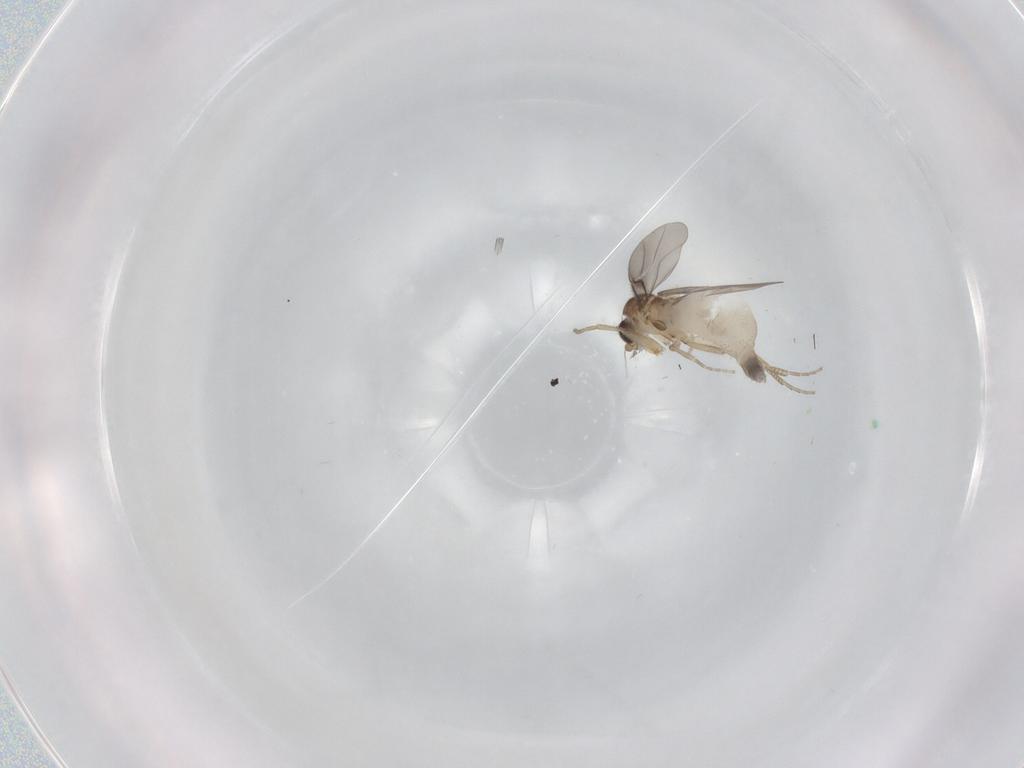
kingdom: Animalia
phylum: Arthropoda
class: Insecta
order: Diptera
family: Phoridae
